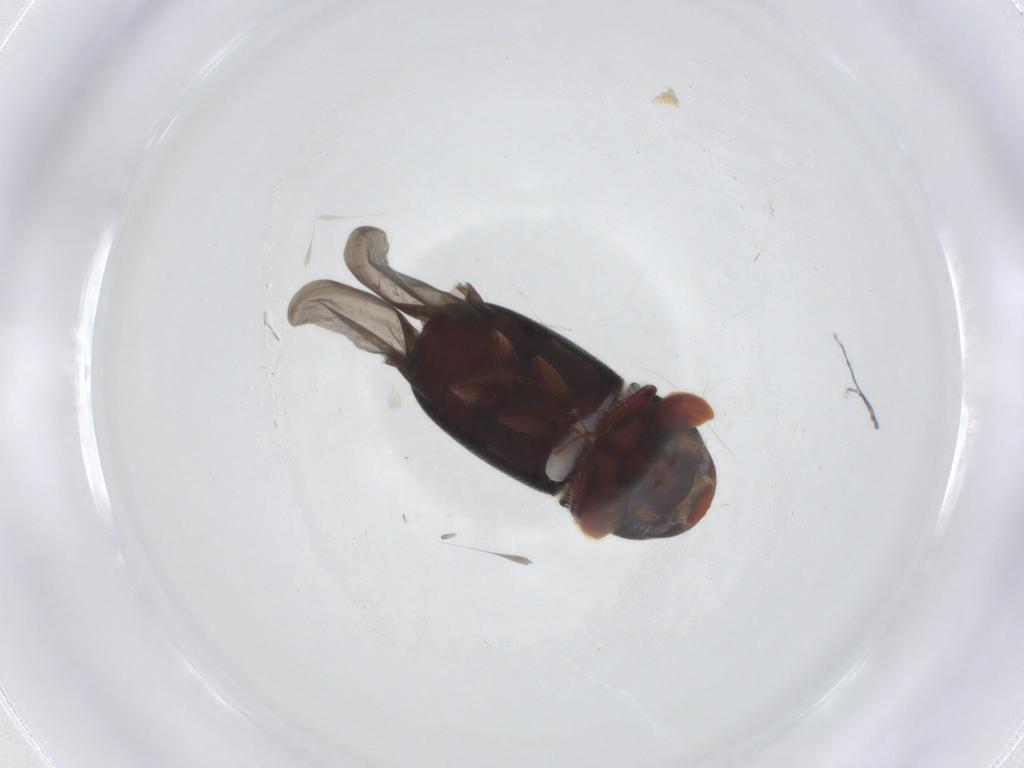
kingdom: Animalia
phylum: Arthropoda
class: Insecta
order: Coleoptera
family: Curculionidae
